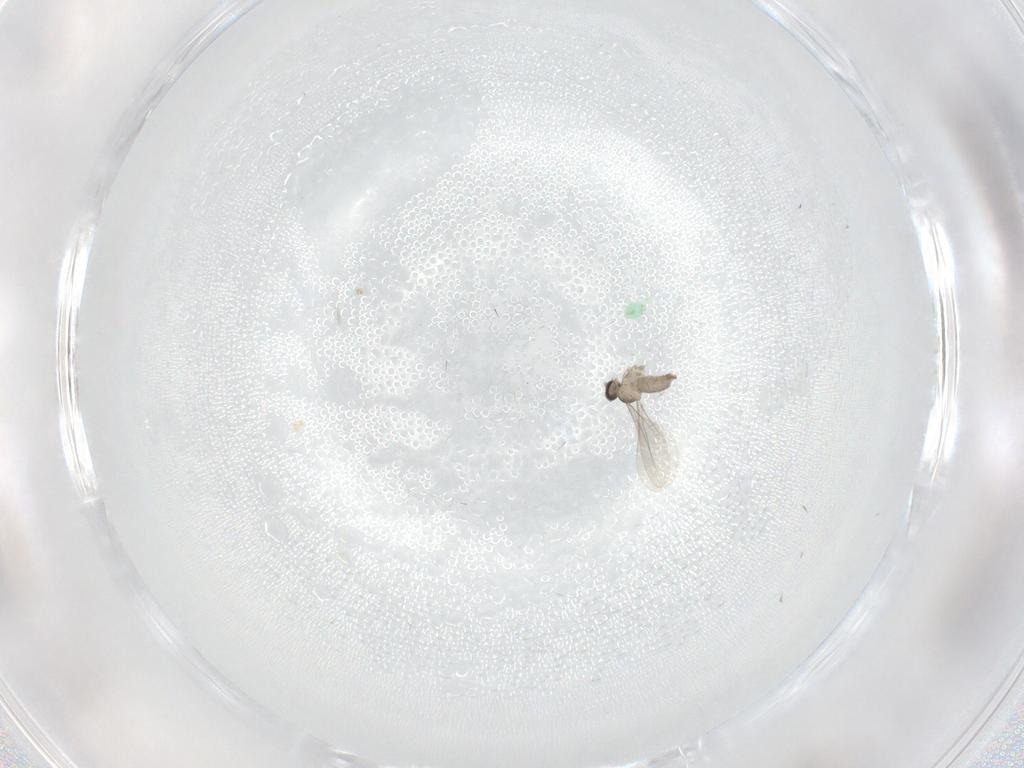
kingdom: Animalia
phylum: Arthropoda
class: Insecta
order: Diptera
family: Cecidomyiidae
